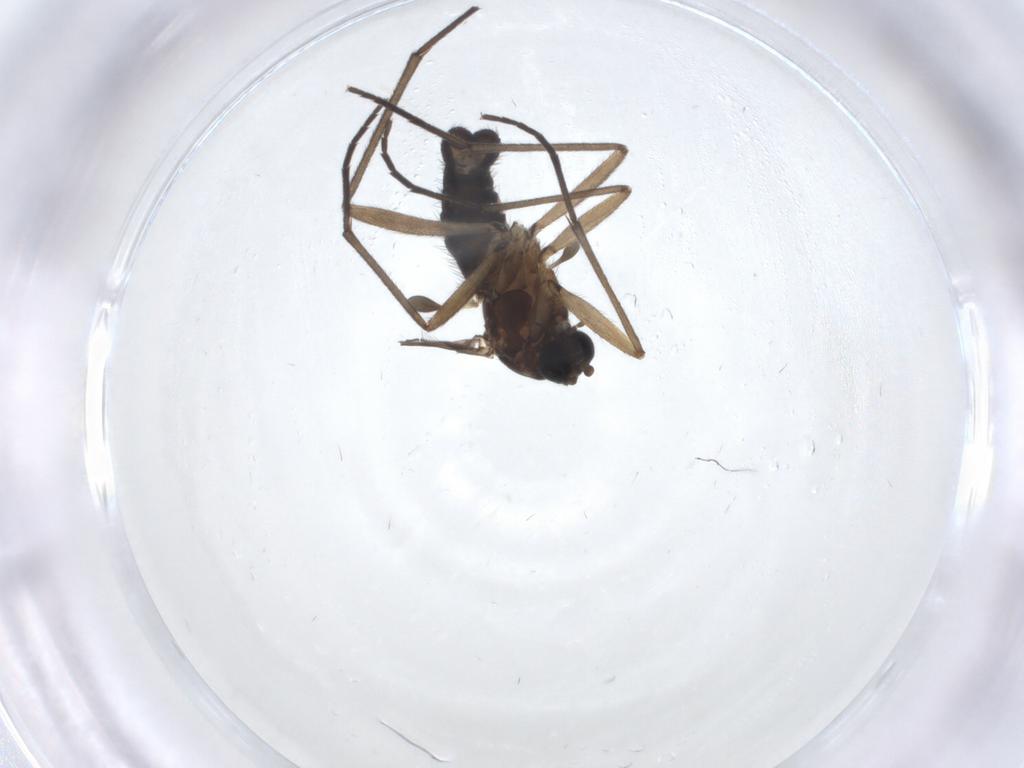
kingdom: Animalia
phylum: Arthropoda
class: Insecta
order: Diptera
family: Sciaridae
